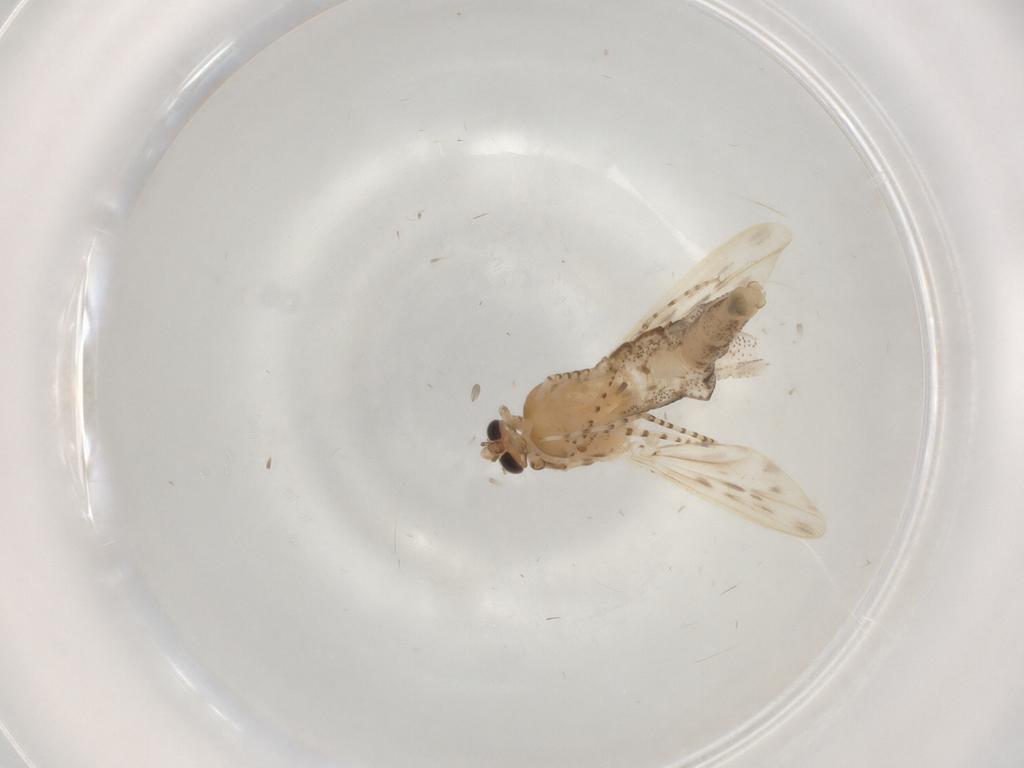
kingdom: Animalia
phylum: Arthropoda
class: Insecta
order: Diptera
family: Chaoboridae
